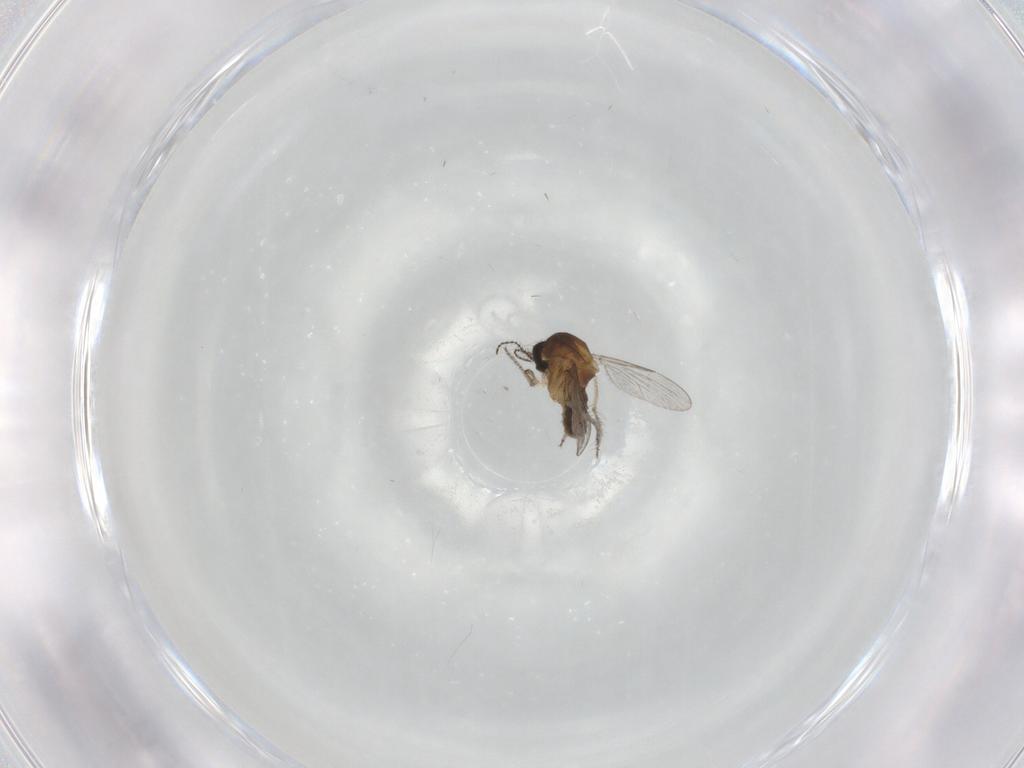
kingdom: Animalia
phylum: Arthropoda
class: Insecta
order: Diptera
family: Ceratopogonidae
